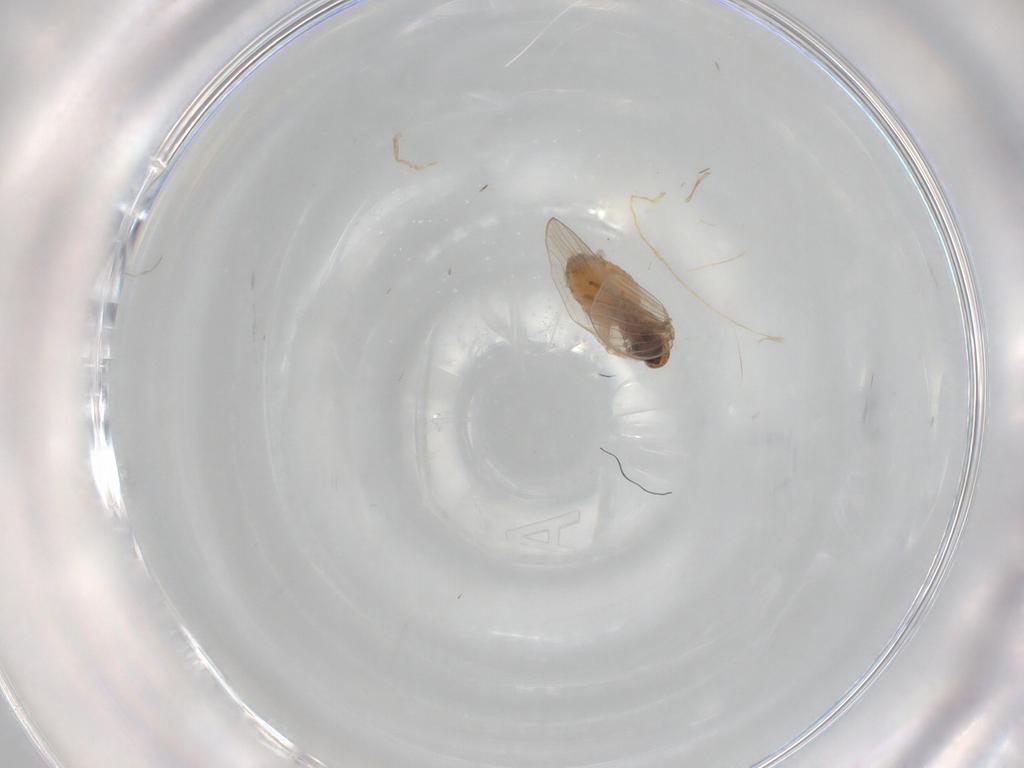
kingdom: Animalia
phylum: Arthropoda
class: Insecta
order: Diptera
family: Psychodidae
